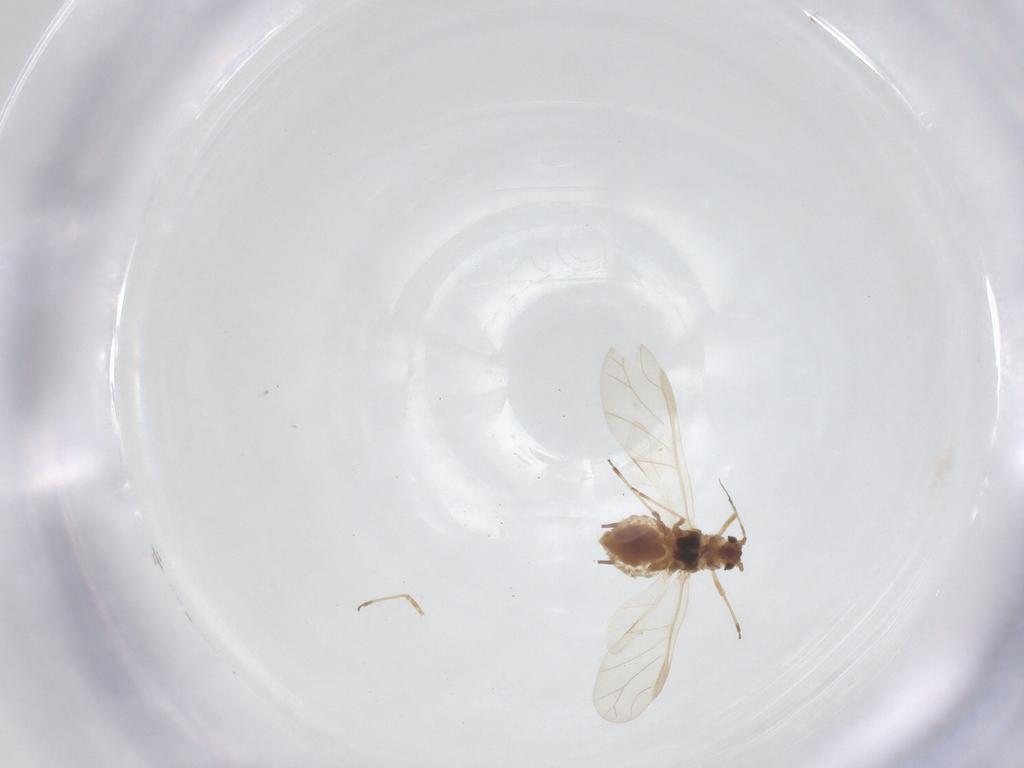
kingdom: Animalia
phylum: Arthropoda
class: Insecta
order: Hemiptera
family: Aphididae
